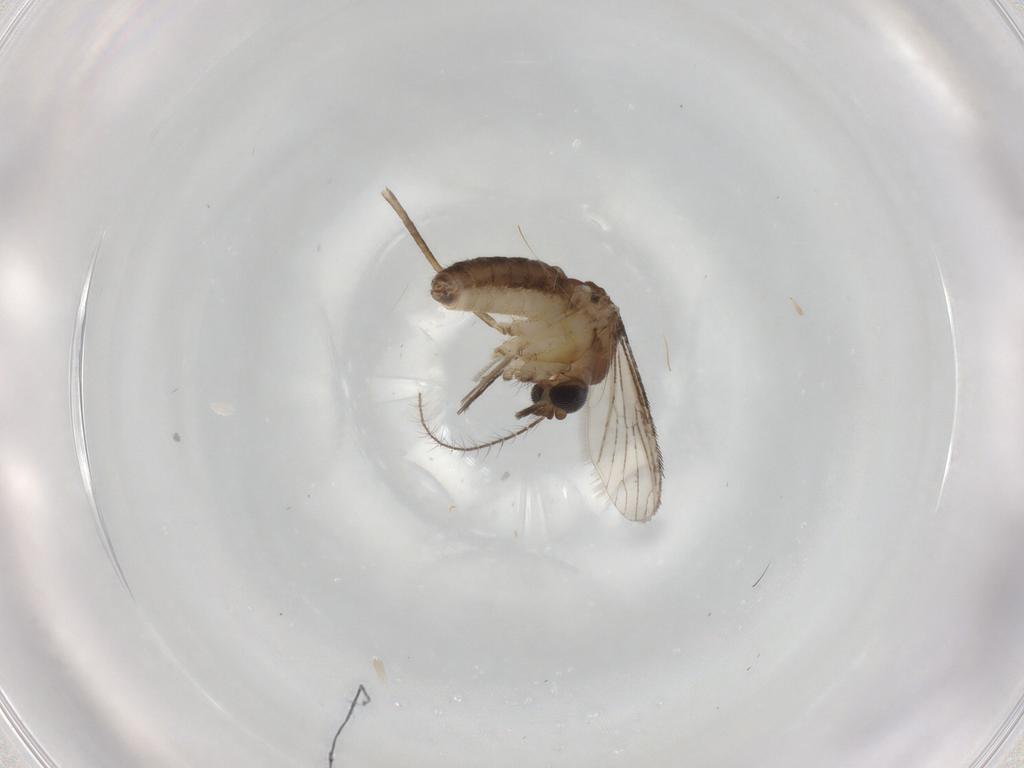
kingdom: Animalia
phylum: Arthropoda
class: Insecta
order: Diptera
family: Ceratopogonidae
